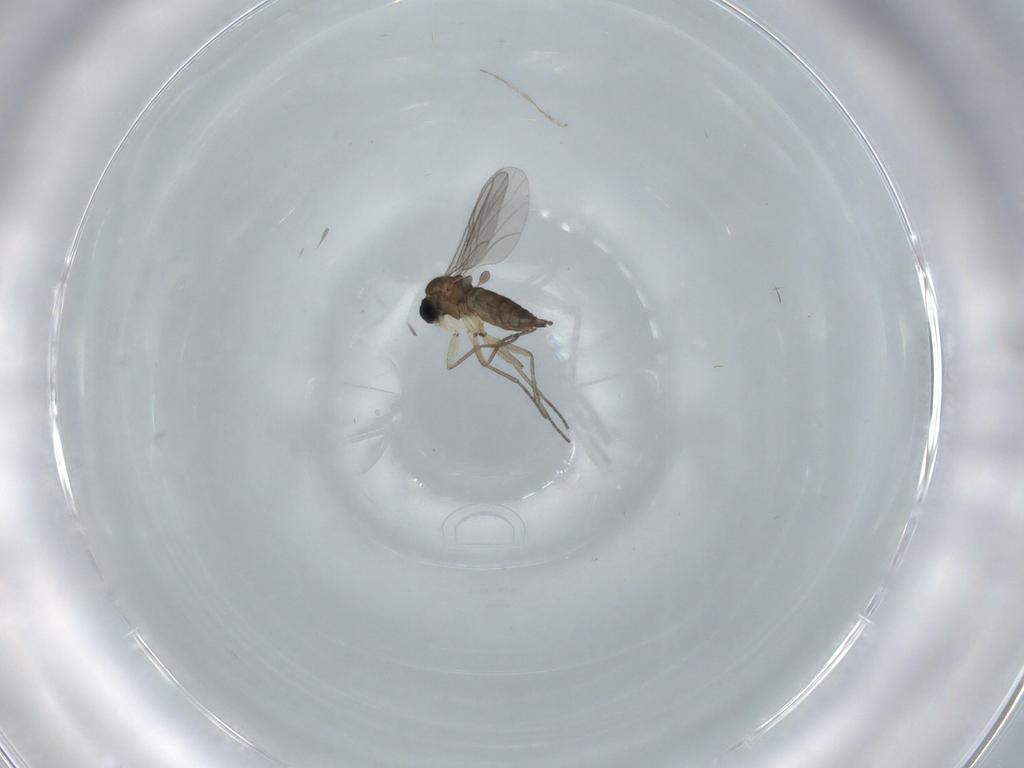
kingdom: Animalia
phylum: Arthropoda
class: Insecta
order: Diptera
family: Sciaridae
